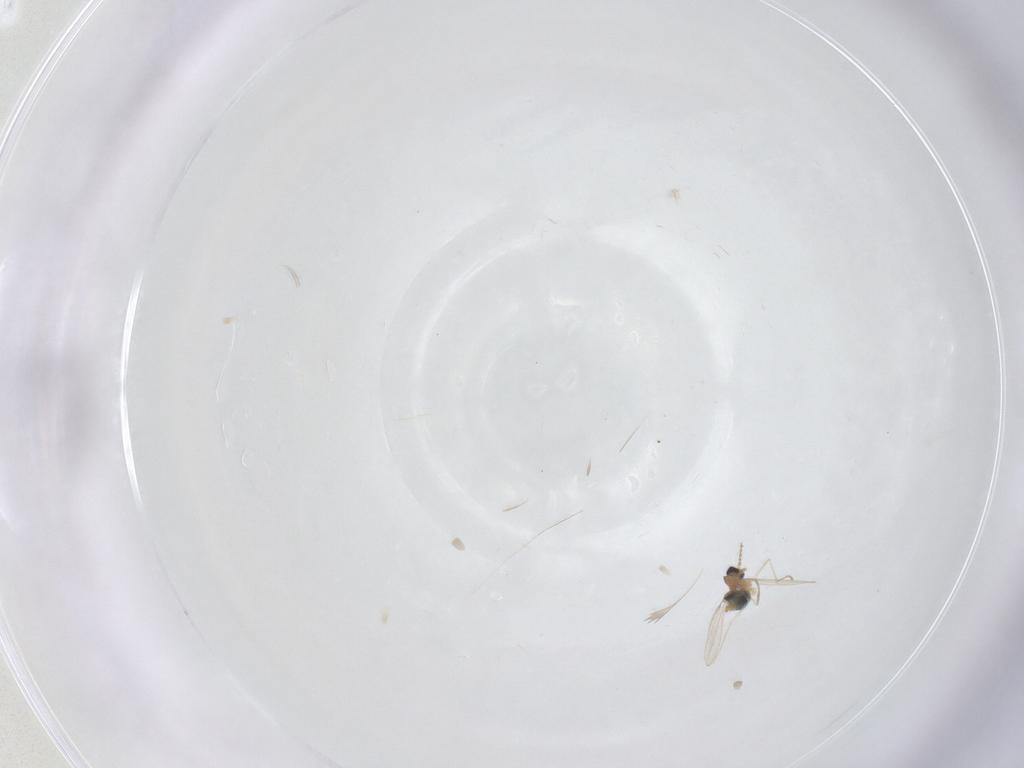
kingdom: Animalia
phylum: Arthropoda
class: Insecta
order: Diptera
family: Cecidomyiidae
